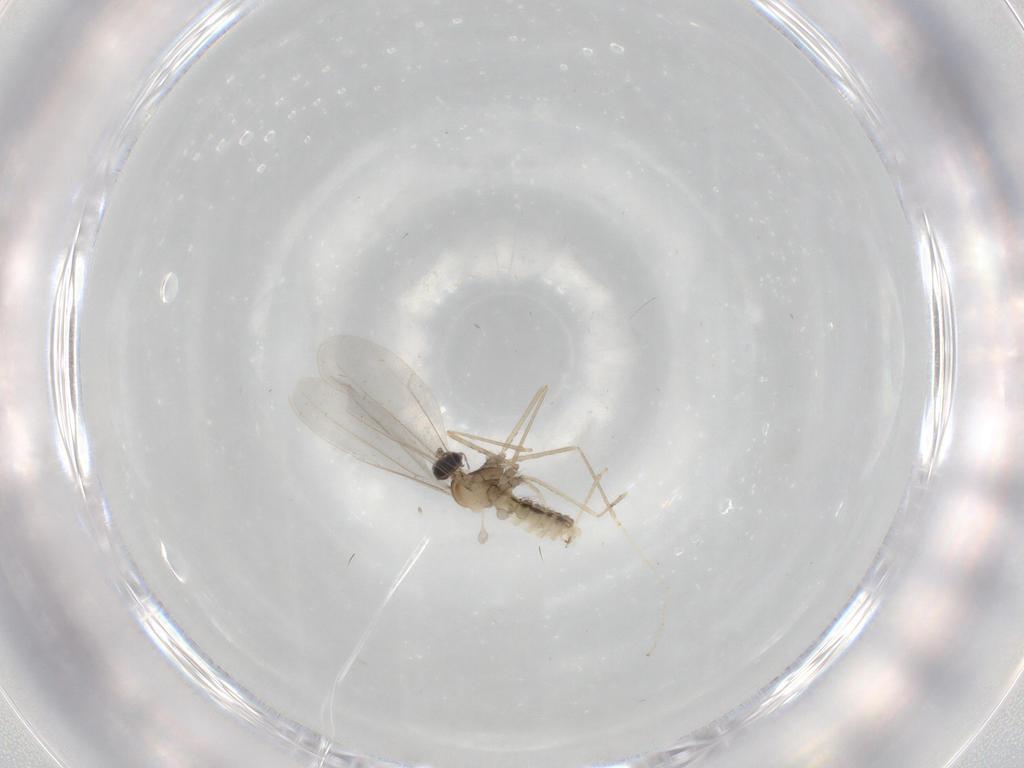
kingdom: Animalia
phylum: Arthropoda
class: Insecta
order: Diptera
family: Cecidomyiidae
